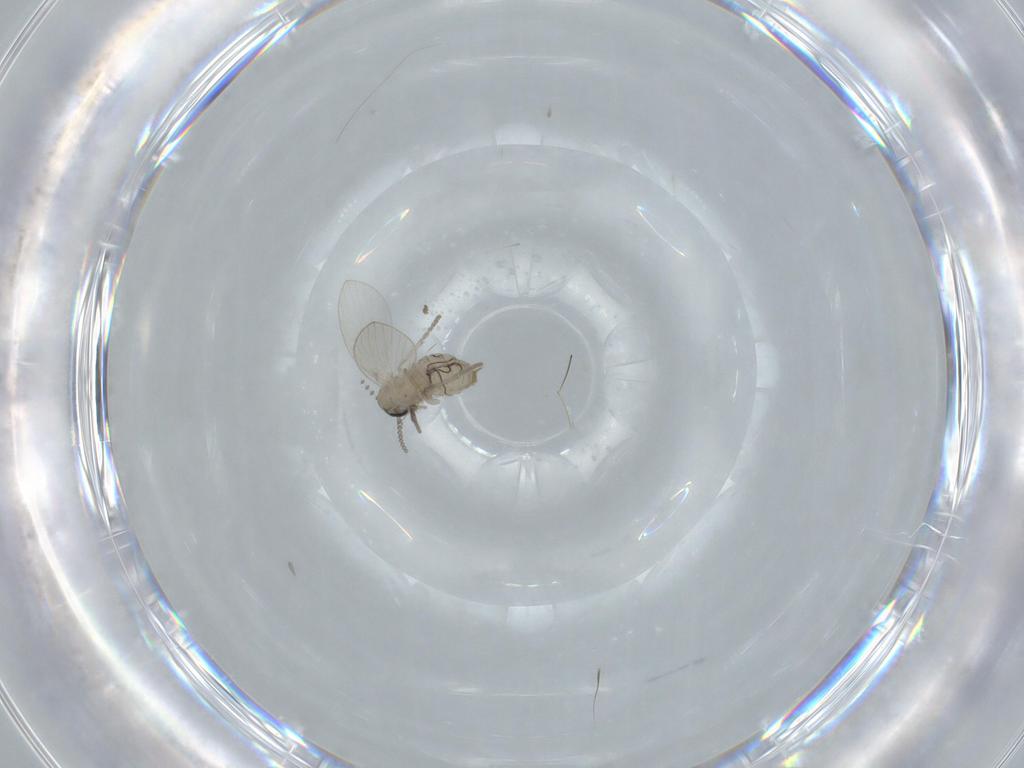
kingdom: Animalia
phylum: Arthropoda
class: Insecta
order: Diptera
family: Psychodidae
